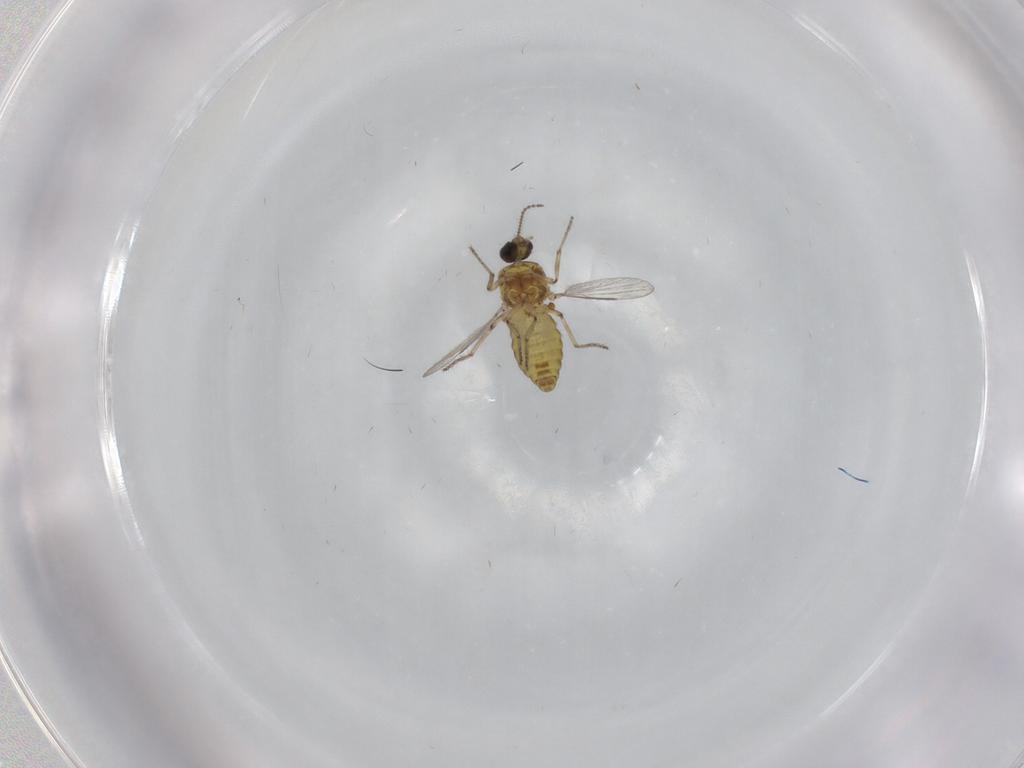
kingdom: Animalia
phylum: Arthropoda
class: Insecta
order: Diptera
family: Ceratopogonidae
